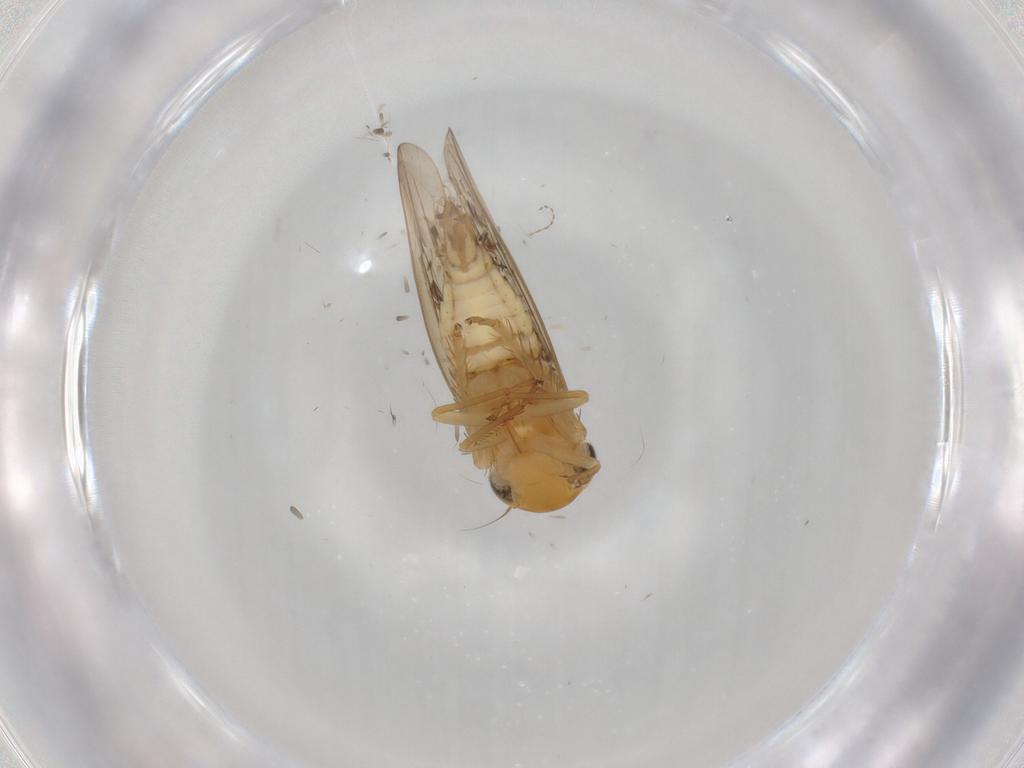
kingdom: Animalia
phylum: Arthropoda
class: Insecta
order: Hemiptera
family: Cicadellidae
